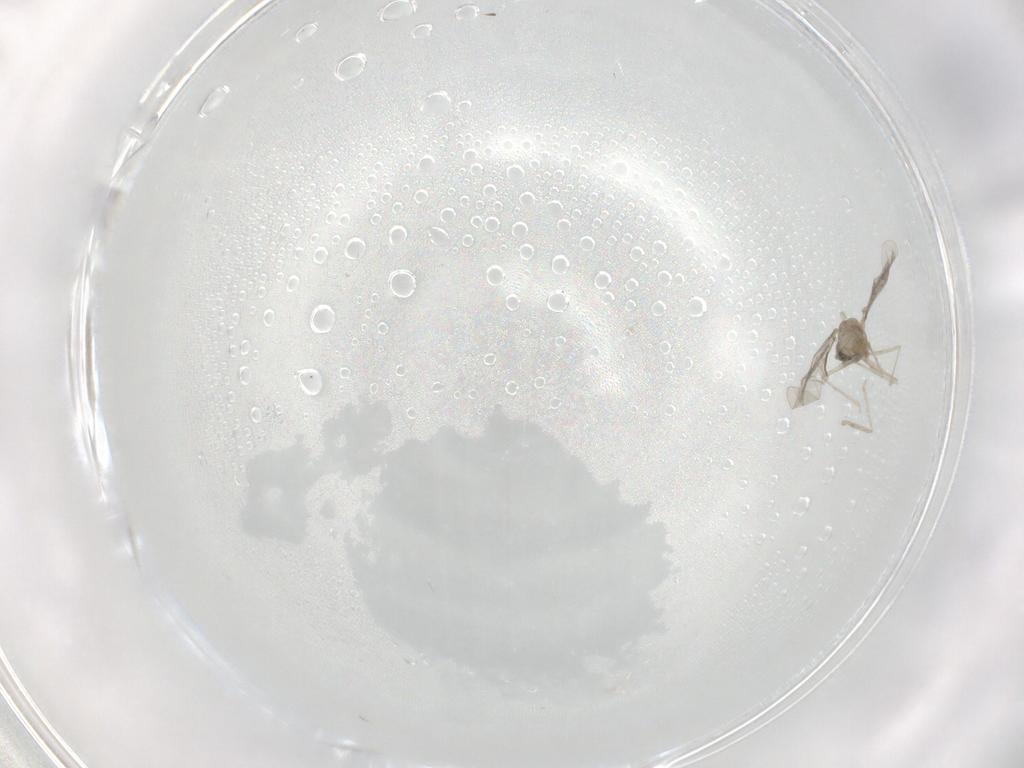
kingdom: Animalia
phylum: Arthropoda
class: Insecta
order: Diptera
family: Cecidomyiidae
